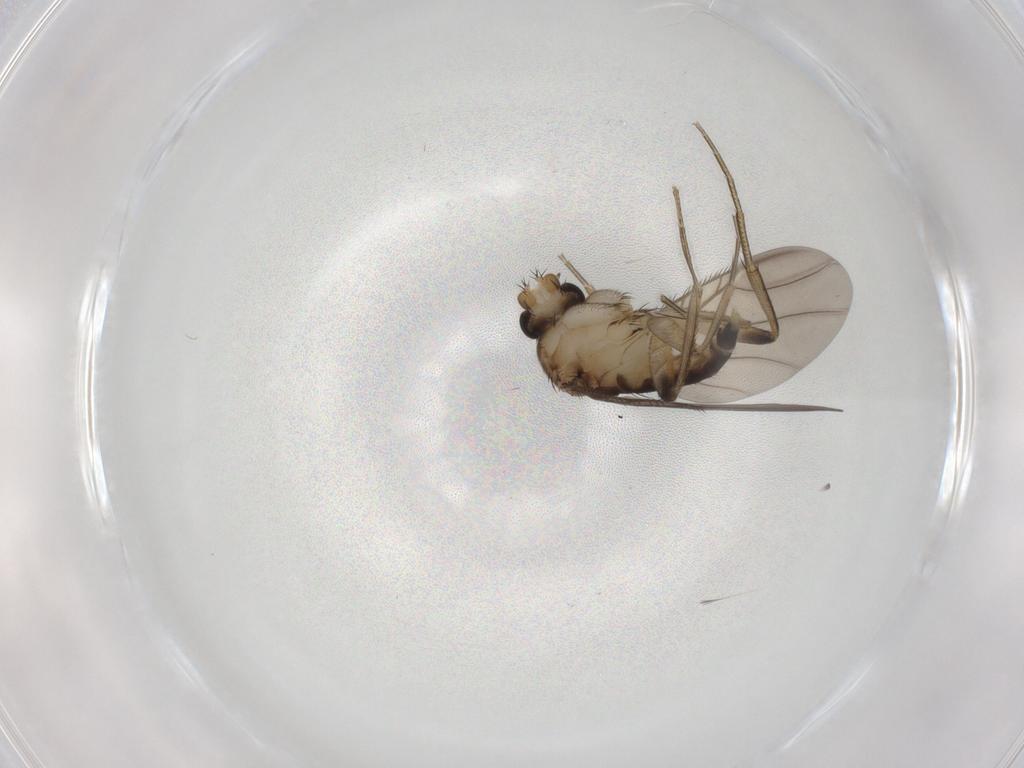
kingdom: Animalia
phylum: Arthropoda
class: Insecta
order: Diptera
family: Phoridae
